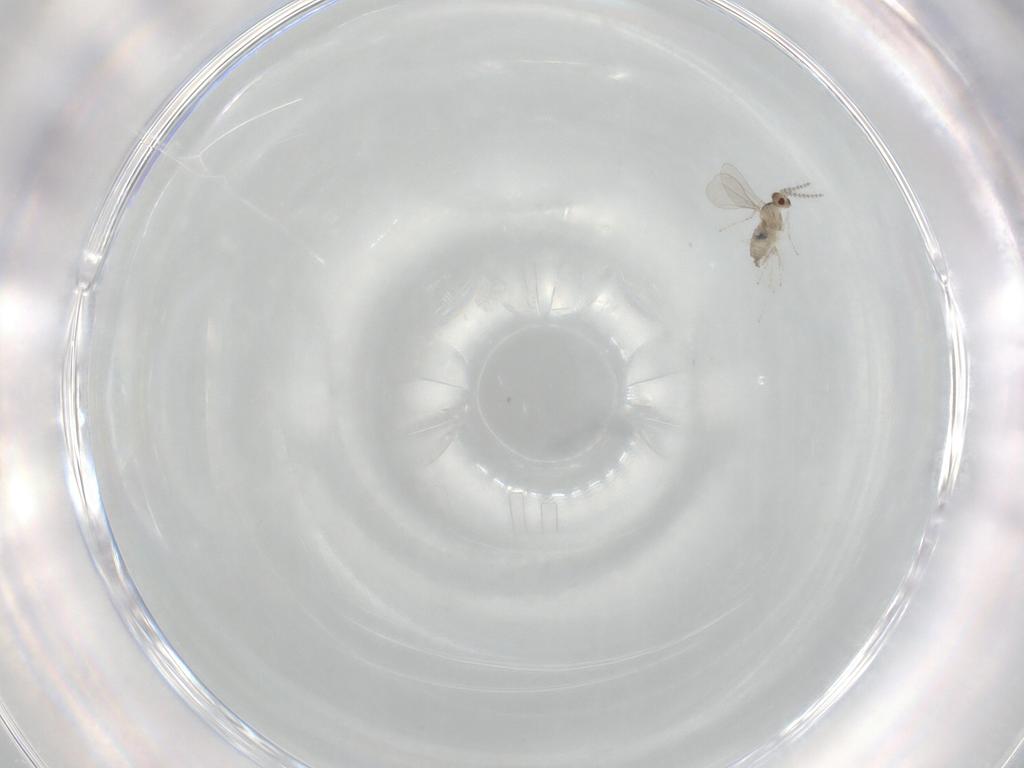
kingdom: Animalia
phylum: Arthropoda
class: Insecta
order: Diptera
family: Cecidomyiidae
